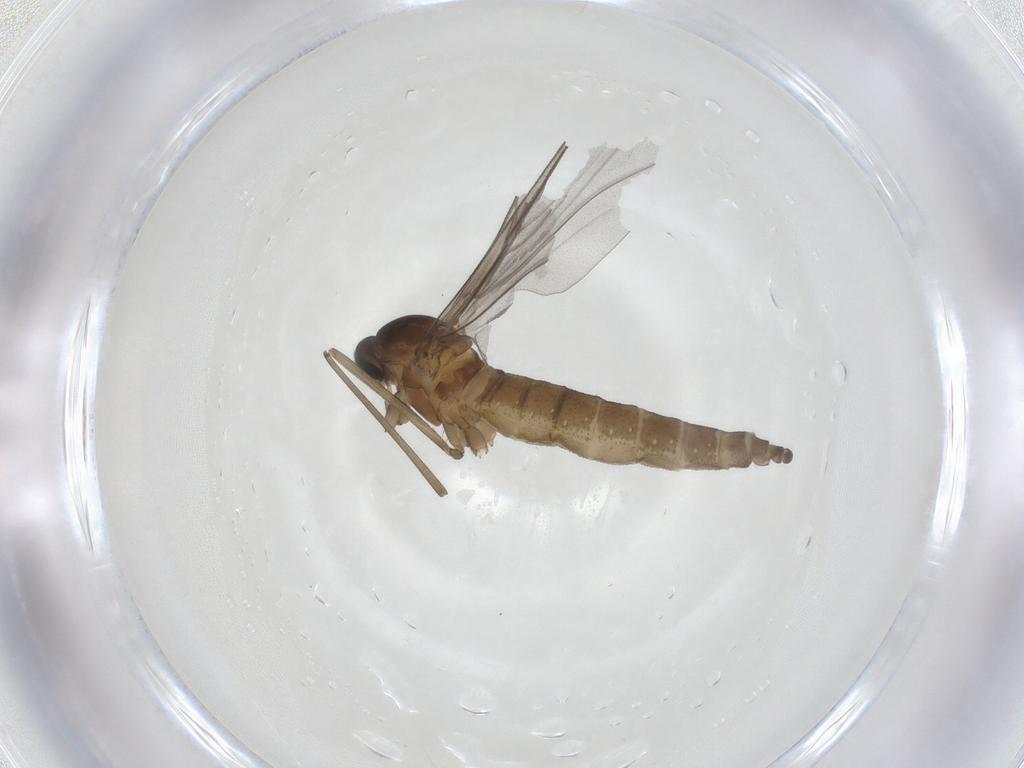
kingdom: Animalia
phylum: Arthropoda
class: Insecta
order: Diptera
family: Cecidomyiidae
